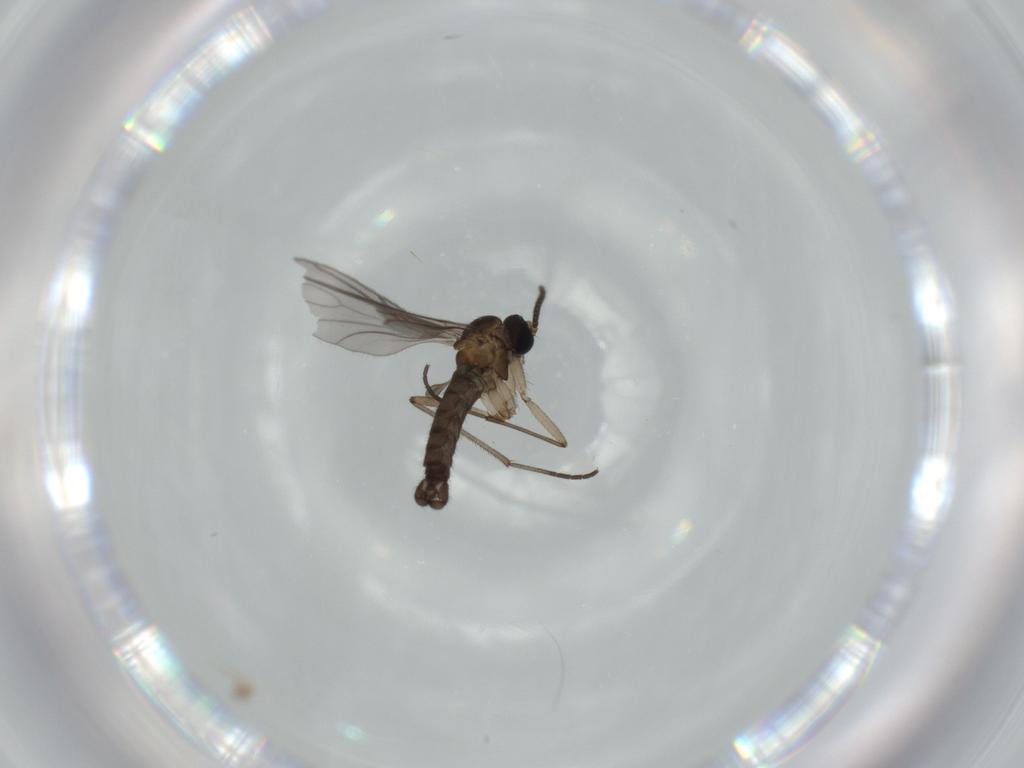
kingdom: Animalia
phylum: Arthropoda
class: Insecta
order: Diptera
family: Sciaridae
